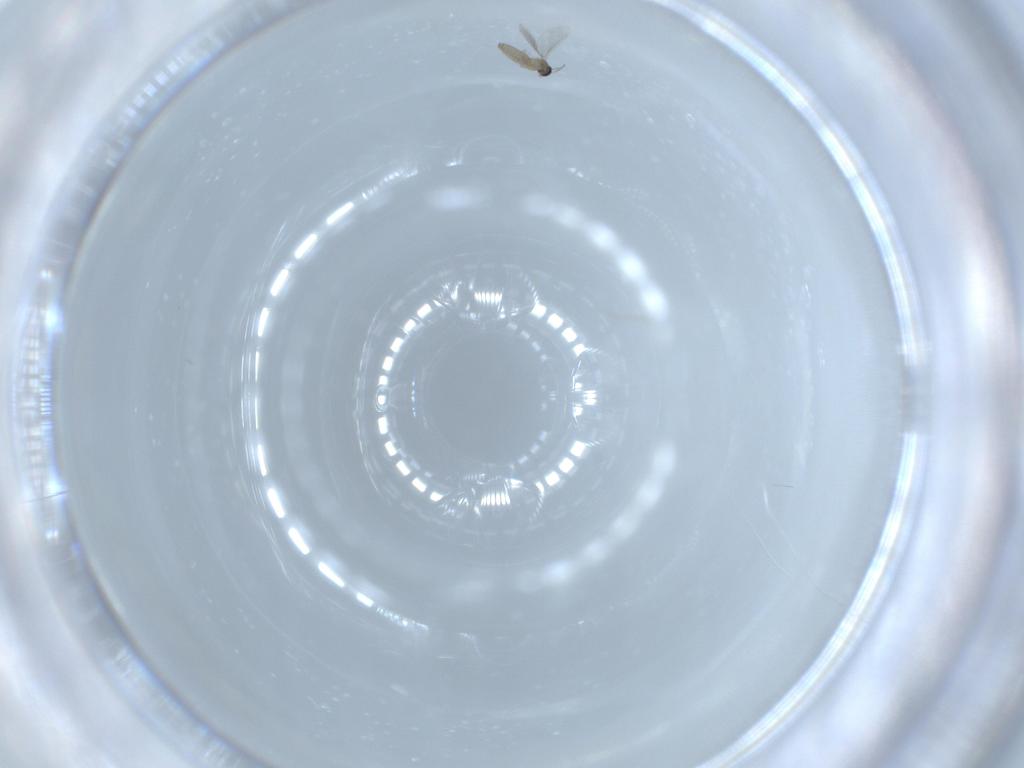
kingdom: Animalia
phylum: Arthropoda
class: Insecta
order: Diptera
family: Cecidomyiidae
